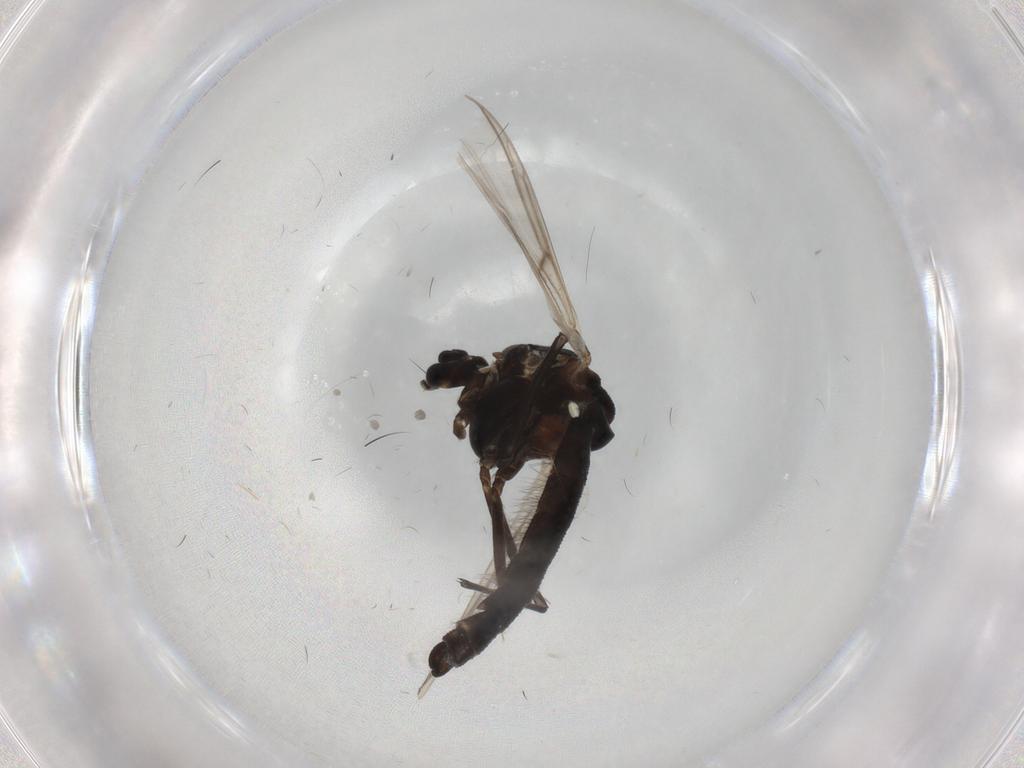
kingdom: Animalia
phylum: Arthropoda
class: Insecta
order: Diptera
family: Chironomidae
